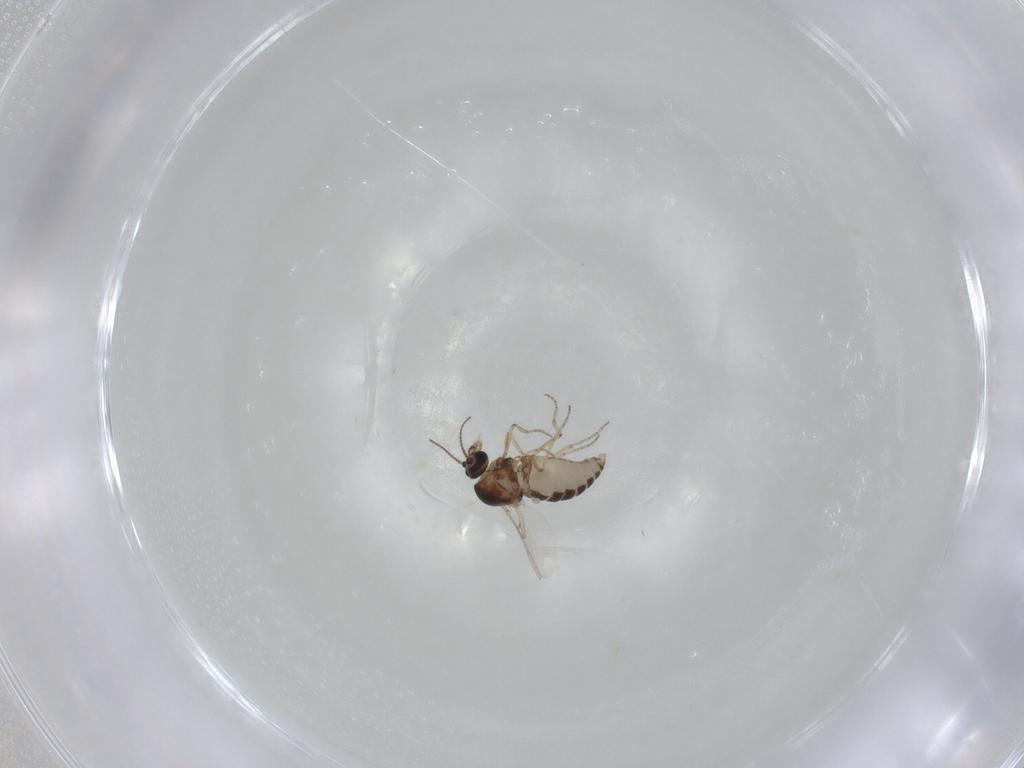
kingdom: Animalia
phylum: Arthropoda
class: Insecta
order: Diptera
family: Ceratopogonidae
